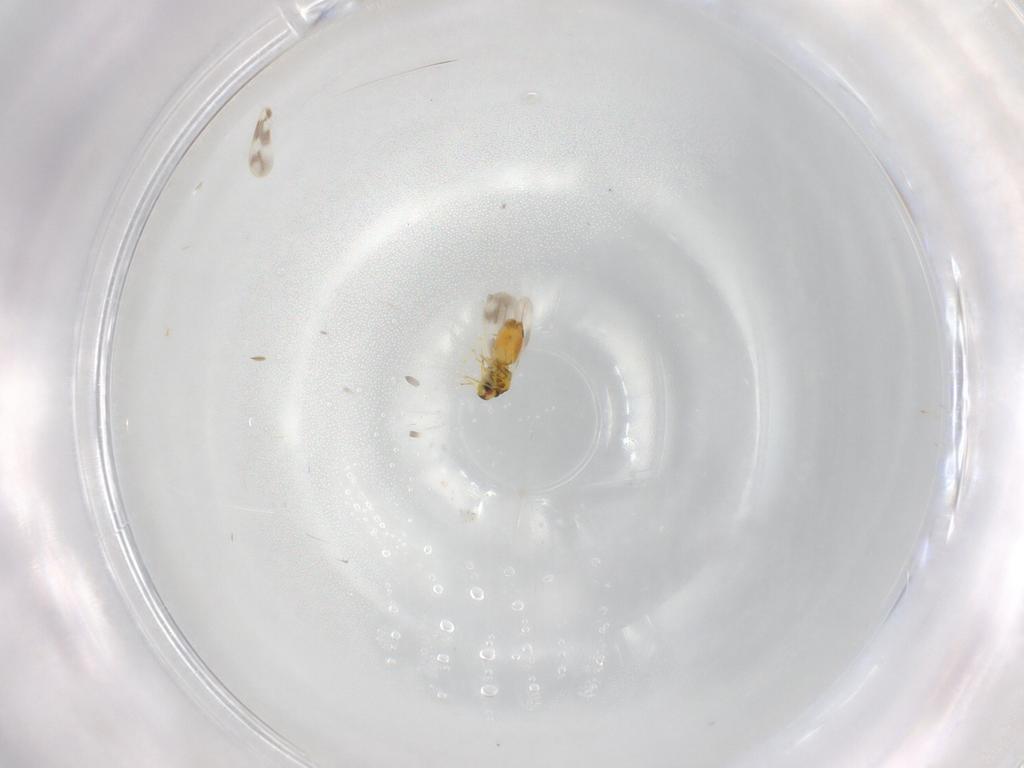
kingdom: Animalia
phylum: Arthropoda
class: Insecta
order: Hemiptera
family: Aleyrodidae
